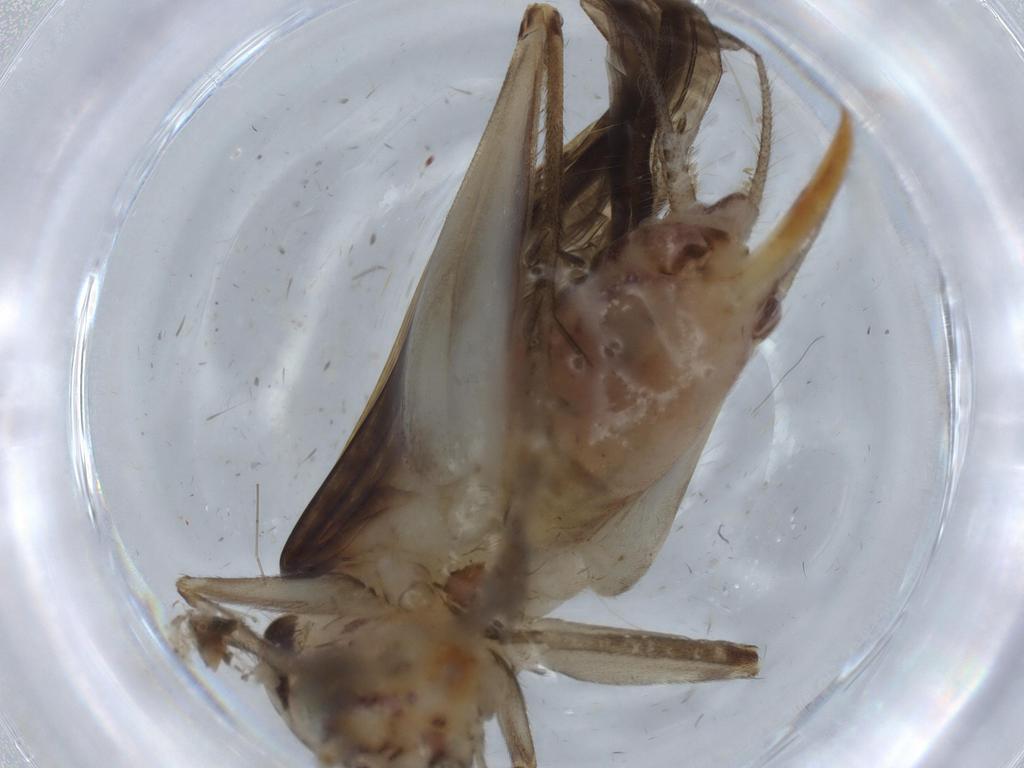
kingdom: Animalia
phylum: Arthropoda
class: Insecta
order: Orthoptera
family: Trigonidiidae
